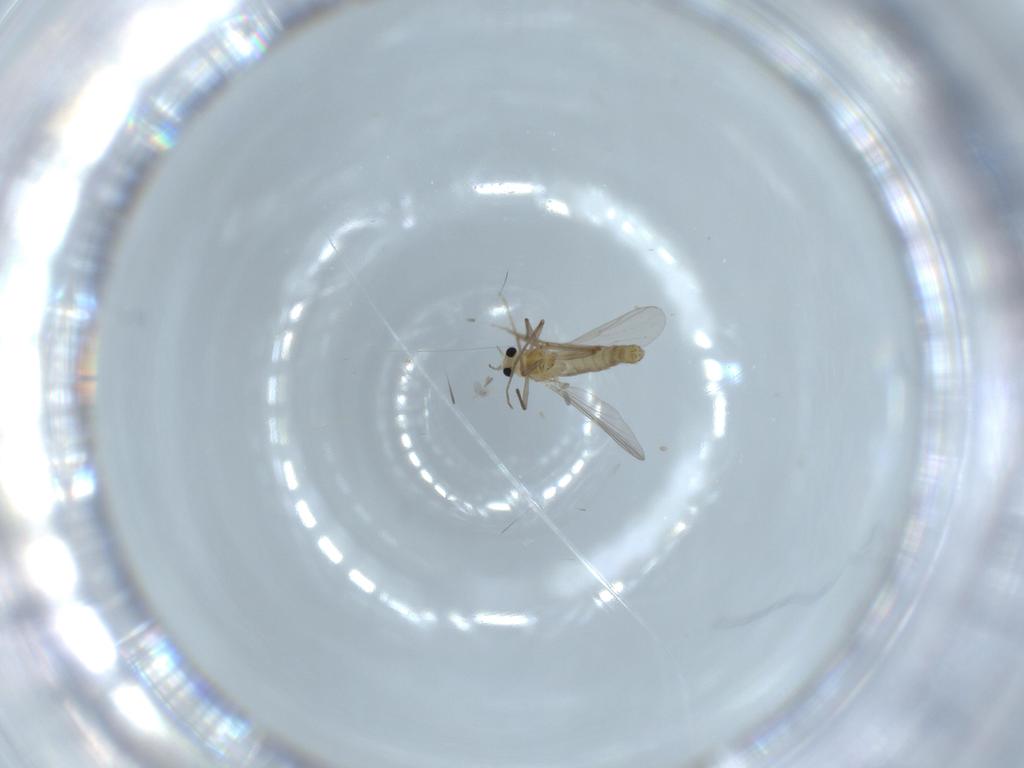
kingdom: Animalia
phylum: Arthropoda
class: Insecta
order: Diptera
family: Chironomidae
